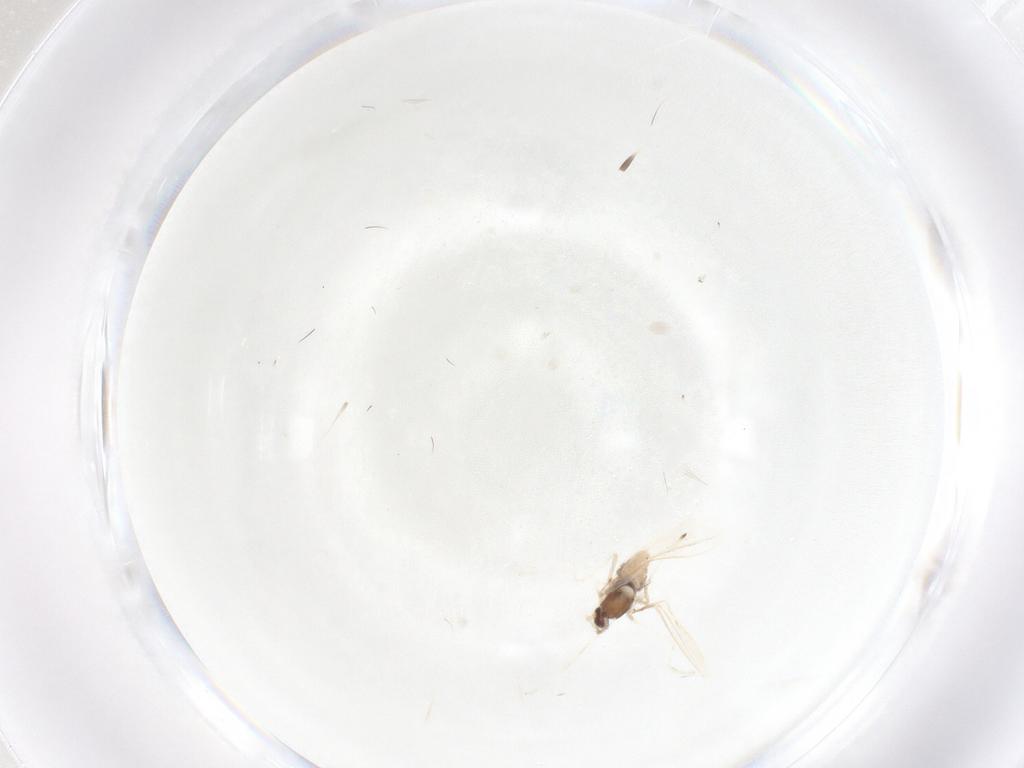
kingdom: Animalia
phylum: Arthropoda
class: Insecta
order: Diptera
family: Cecidomyiidae
